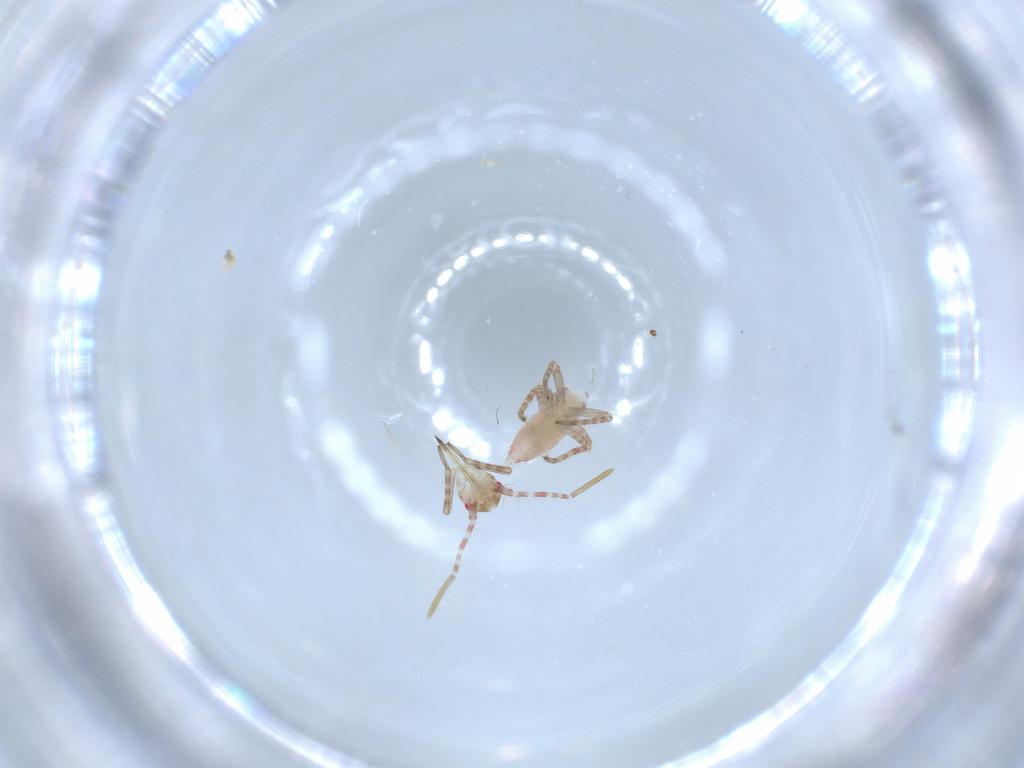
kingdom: Animalia
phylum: Arthropoda
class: Insecta
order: Hemiptera
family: Miridae
